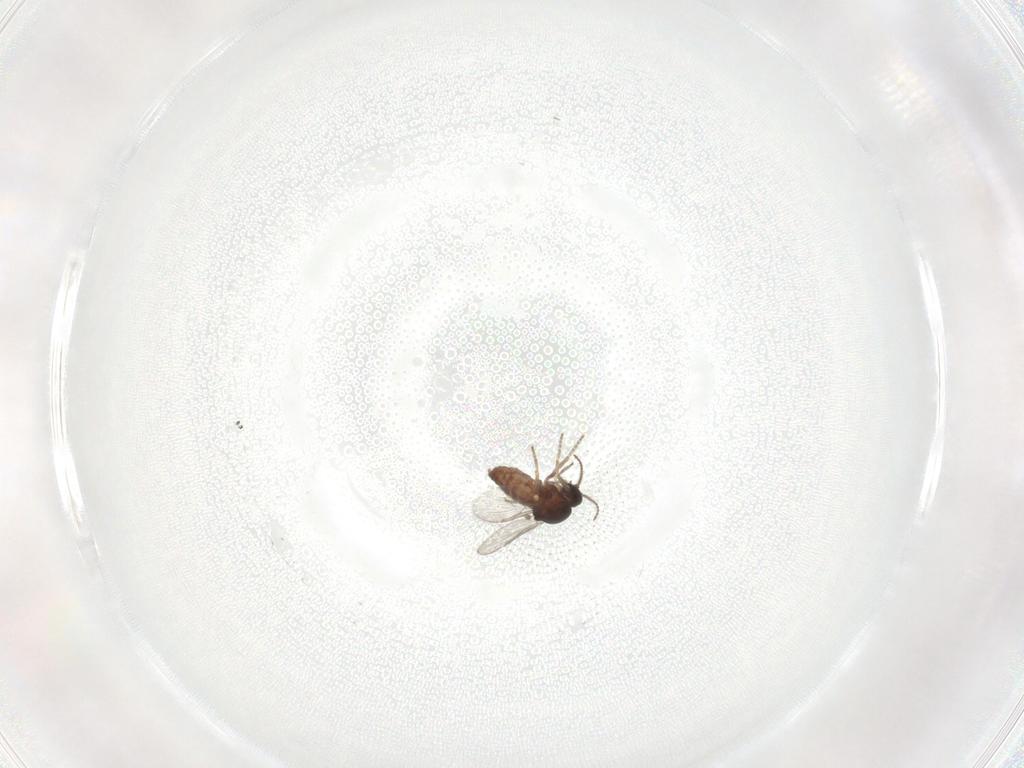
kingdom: Animalia
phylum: Arthropoda
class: Insecta
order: Diptera
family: Ceratopogonidae
